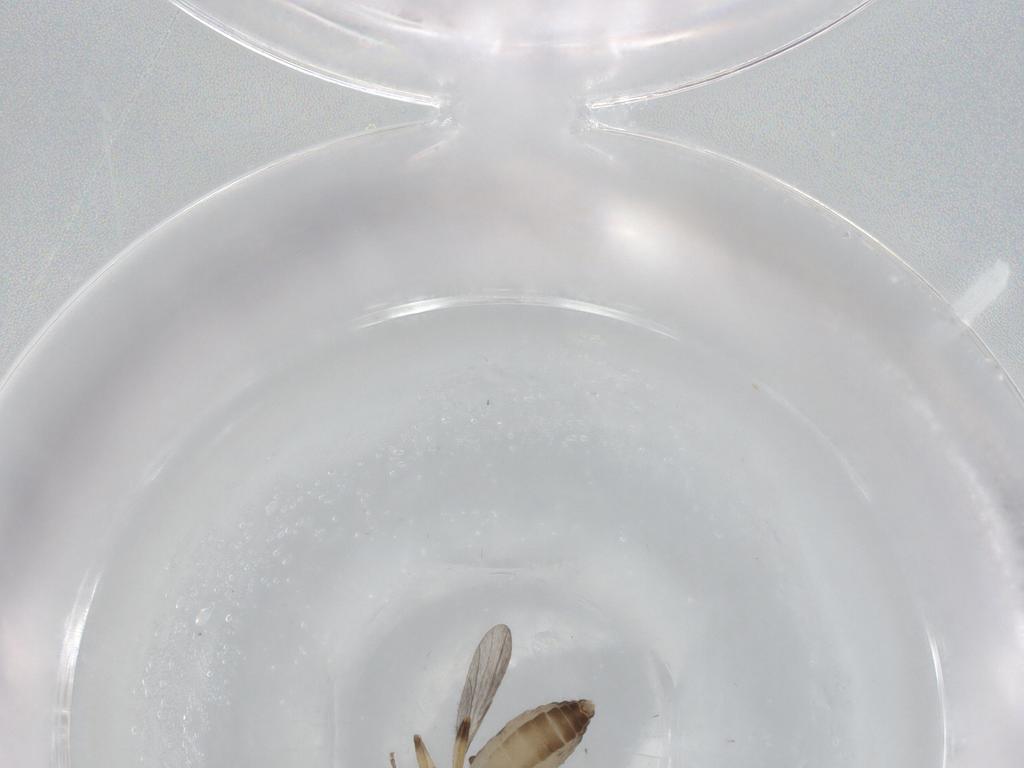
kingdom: Animalia
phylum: Arthropoda
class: Insecta
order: Diptera
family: Ceratopogonidae
